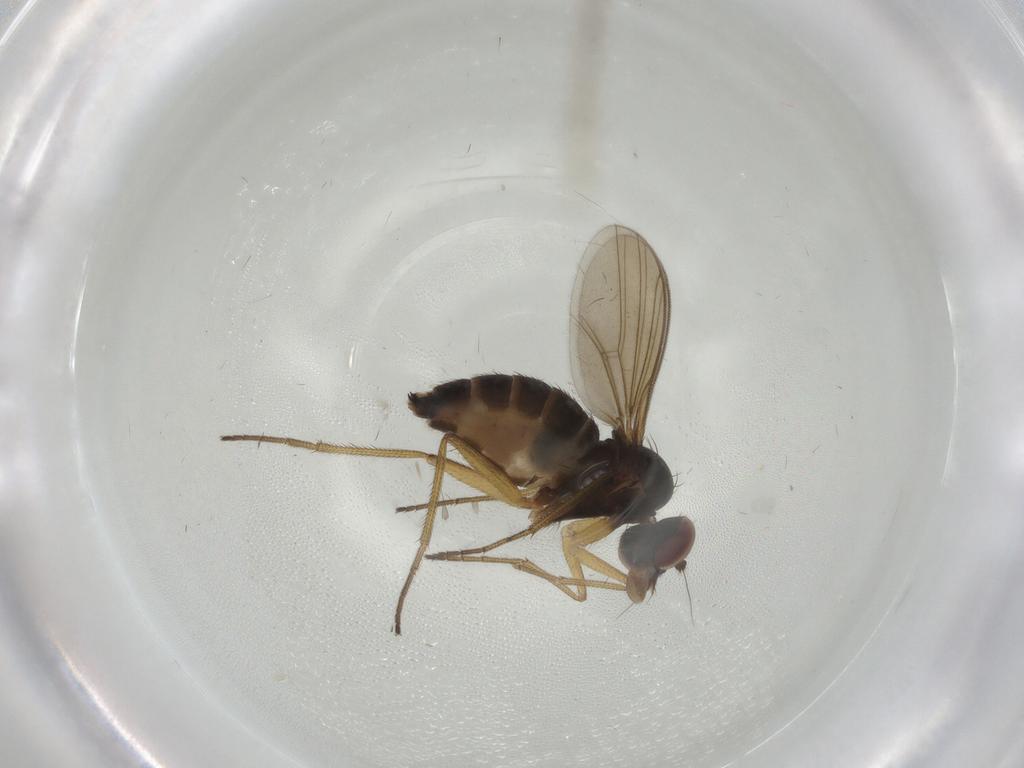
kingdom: Animalia
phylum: Arthropoda
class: Insecta
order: Diptera
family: Dolichopodidae
